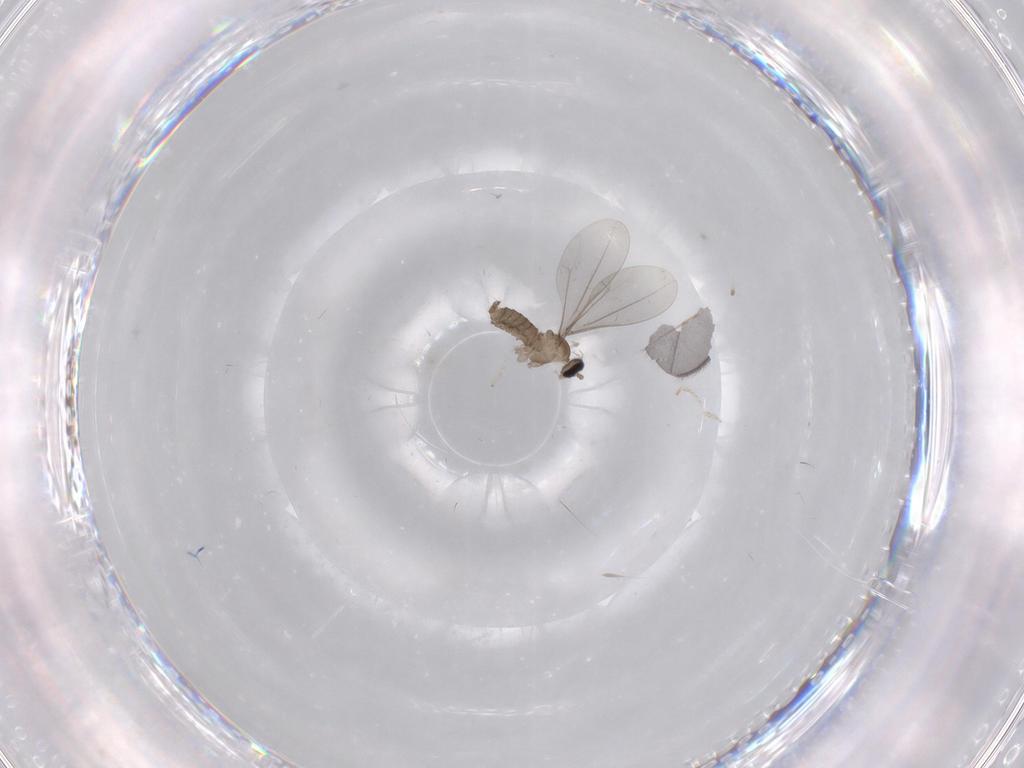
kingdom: Animalia
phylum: Arthropoda
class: Insecta
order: Diptera
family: Cecidomyiidae
